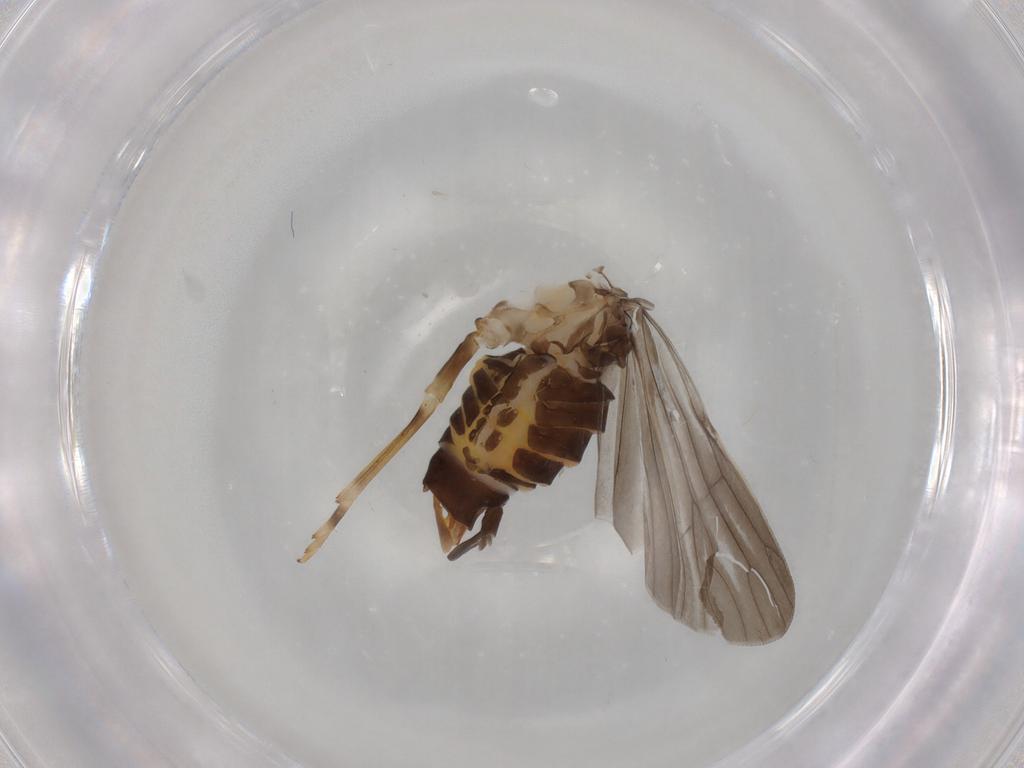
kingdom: Animalia
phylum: Arthropoda
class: Insecta
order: Hemiptera
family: Cixiidae
